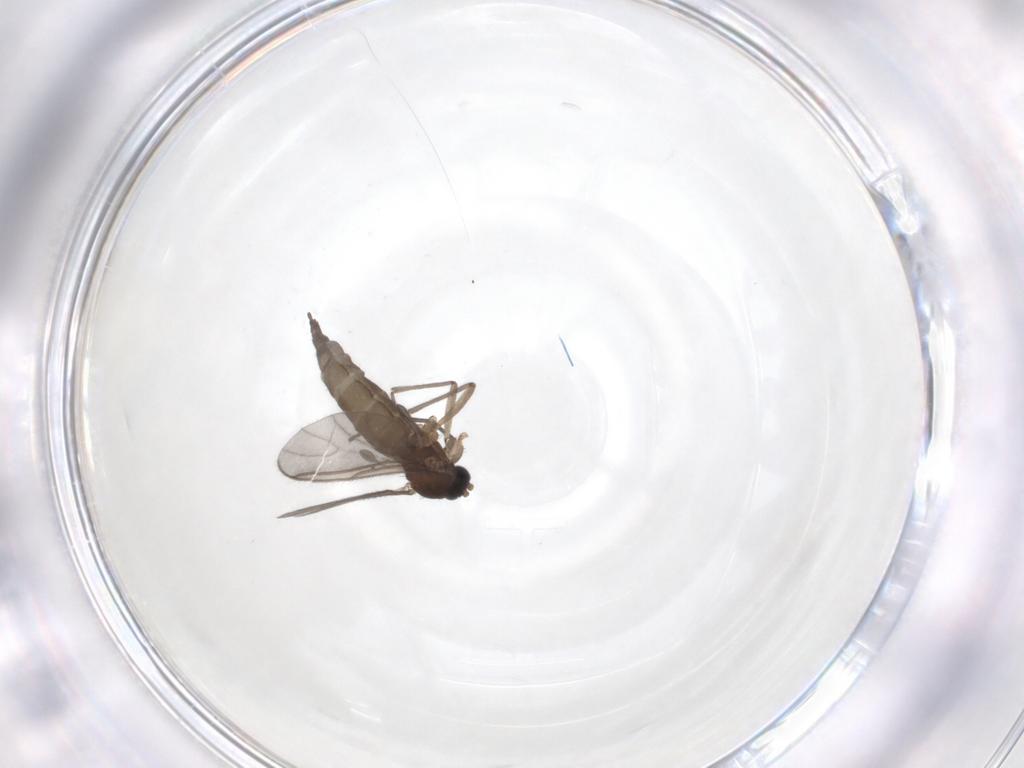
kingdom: Animalia
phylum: Arthropoda
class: Insecta
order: Diptera
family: Sciaridae
